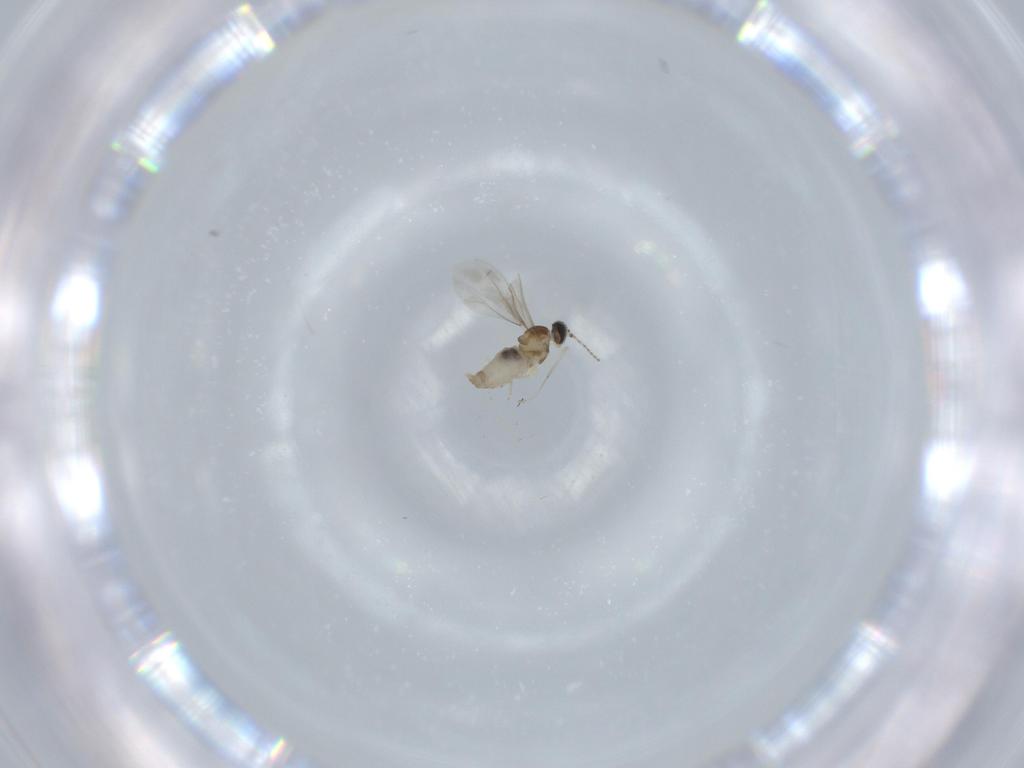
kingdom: Animalia
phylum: Arthropoda
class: Insecta
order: Diptera
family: Cecidomyiidae
